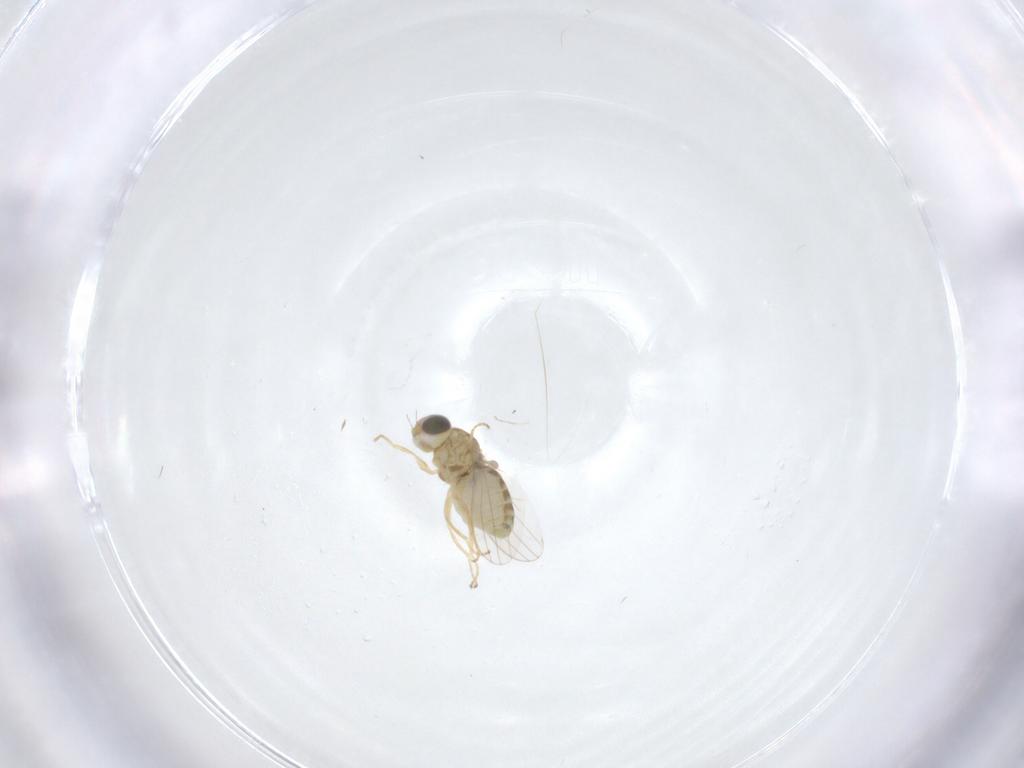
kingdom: Animalia
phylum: Arthropoda
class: Insecta
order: Diptera
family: Chyromyidae
